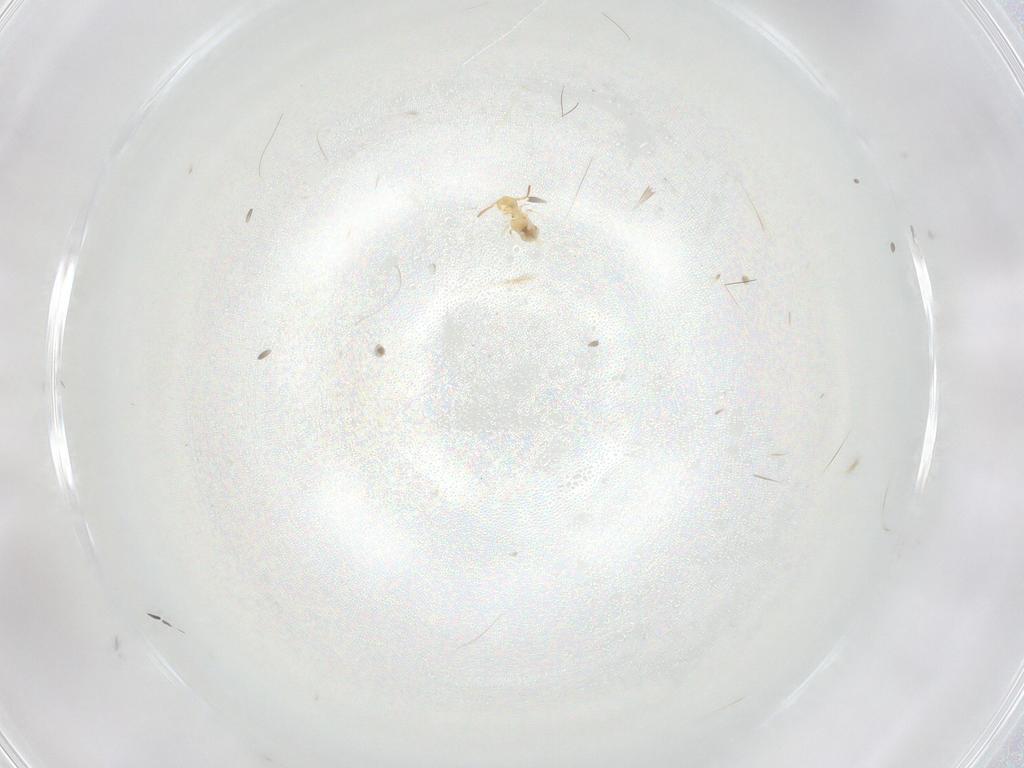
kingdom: Animalia
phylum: Arthropoda
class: Collembola
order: Symphypleona
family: Bourletiellidae
